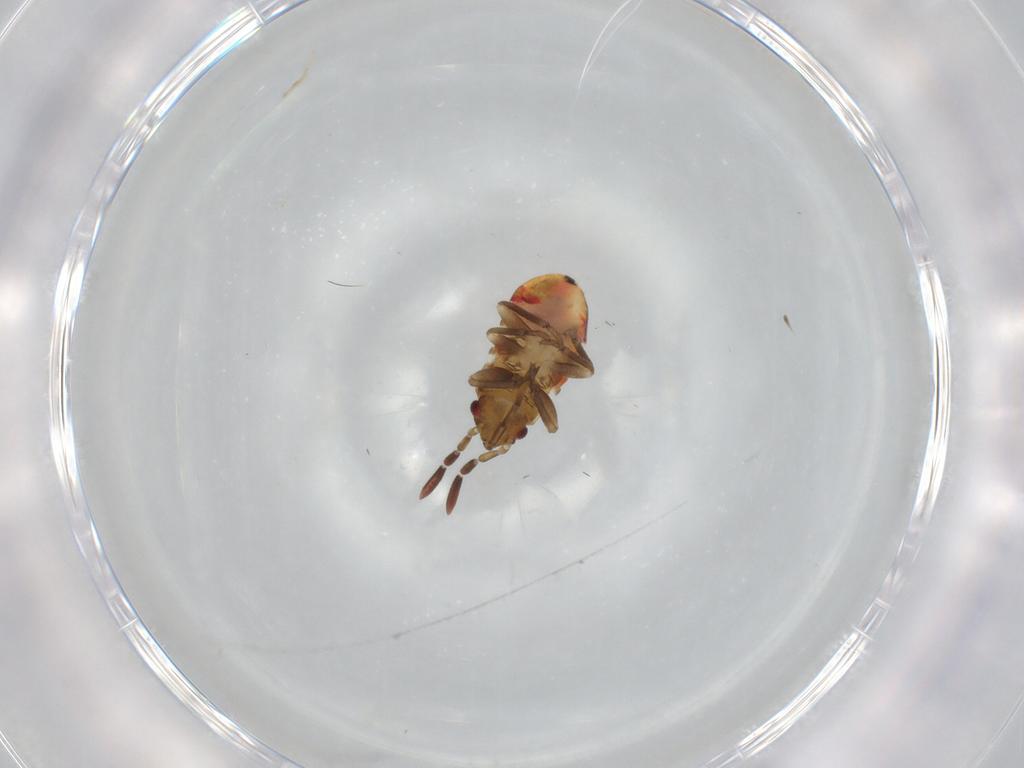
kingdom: Animalia
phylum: Arthropoda
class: Insecta
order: Hemiptera
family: Rhyparochromidae
